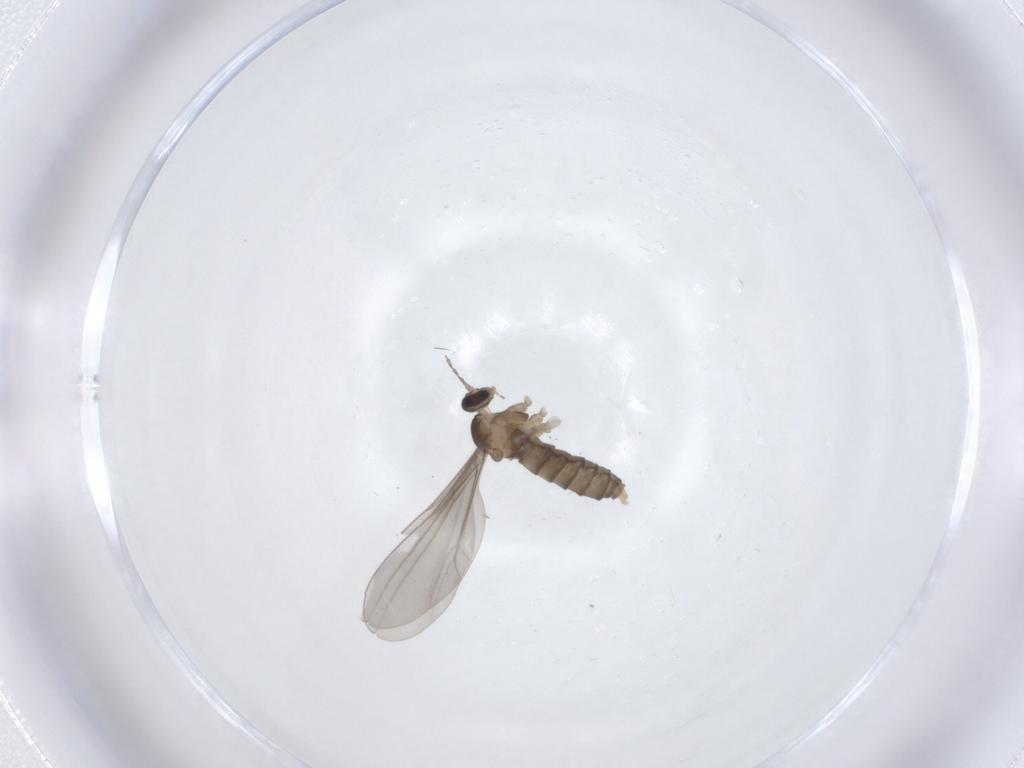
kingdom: Animalia
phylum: Arthropoda
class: Insecta
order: Diptera
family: Cecidomyiidae
